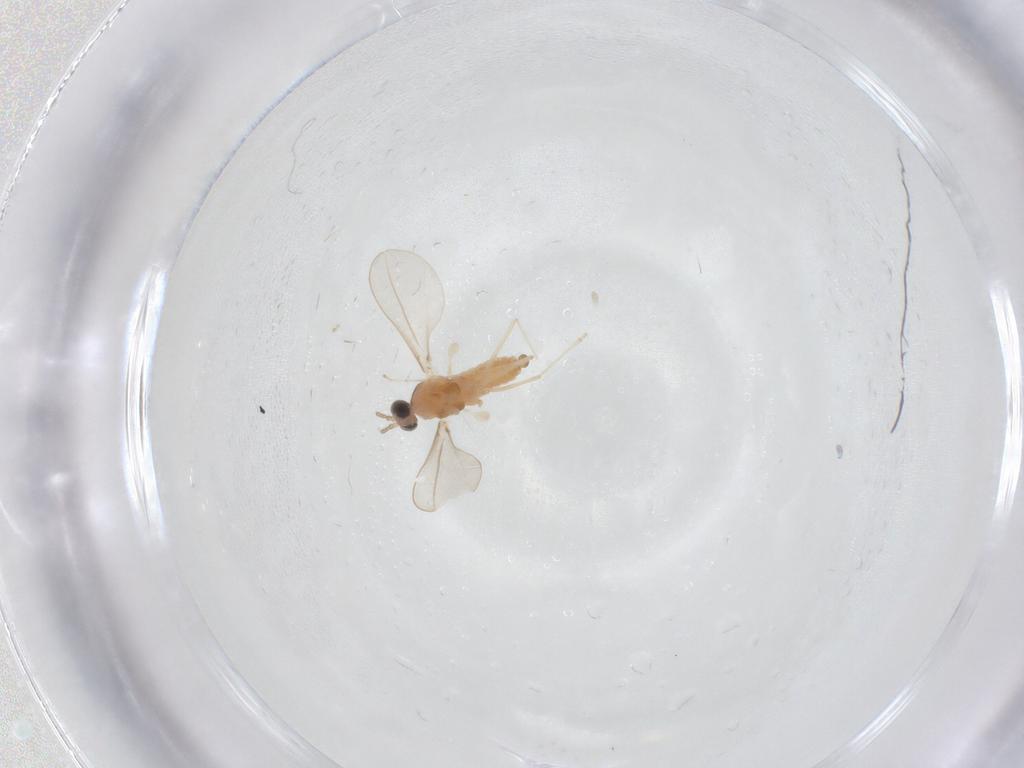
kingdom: Animalia
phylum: Arthropoda
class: Insecta
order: Diptera
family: Cecidomyiidae
